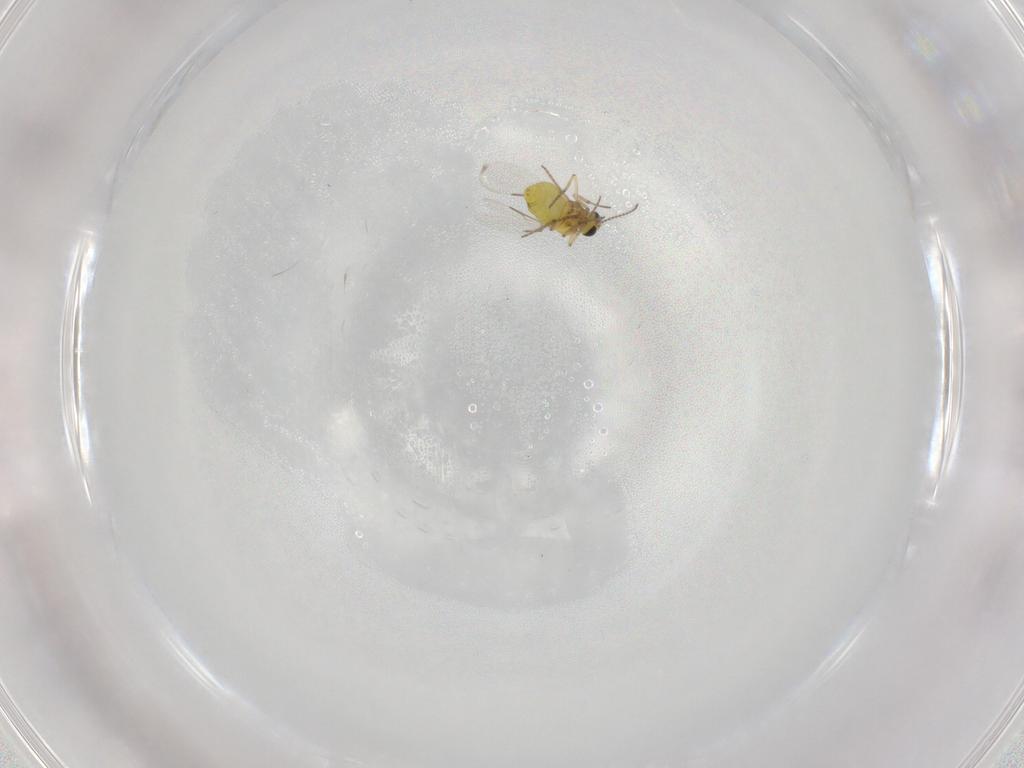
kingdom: Animalia
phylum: Arthropoda
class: Insecta
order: Diptera
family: Ceratopogonidae
